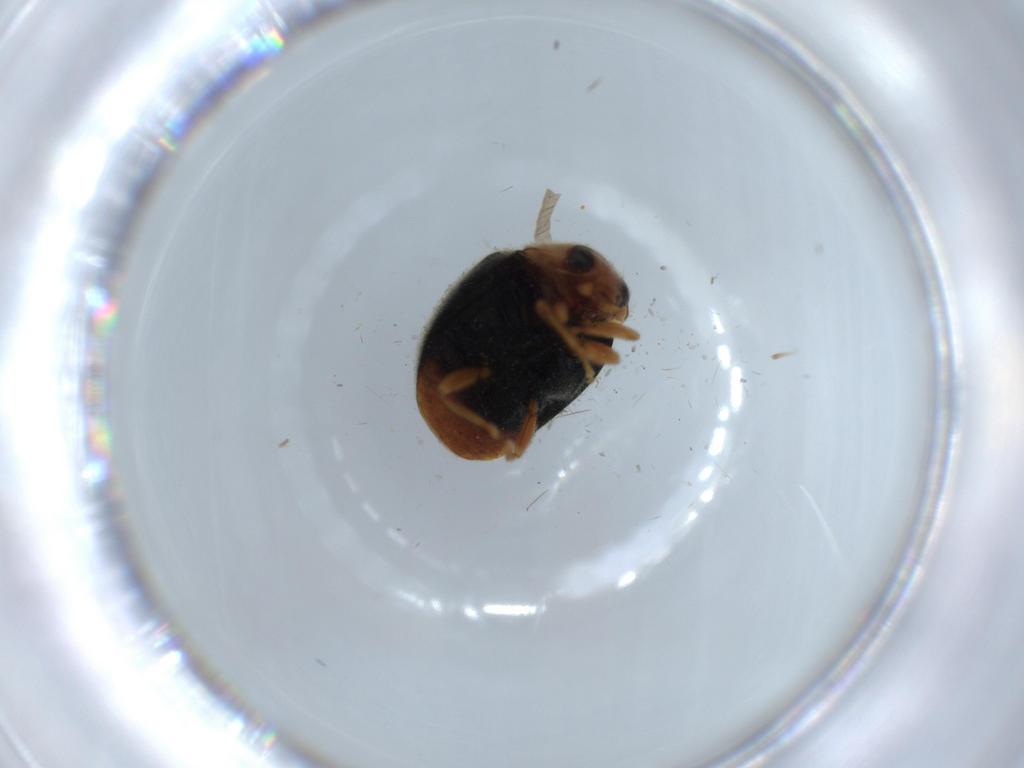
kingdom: Animalia
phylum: Arthropoda
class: Insecta
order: Coleoptera
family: Coccinellidae
